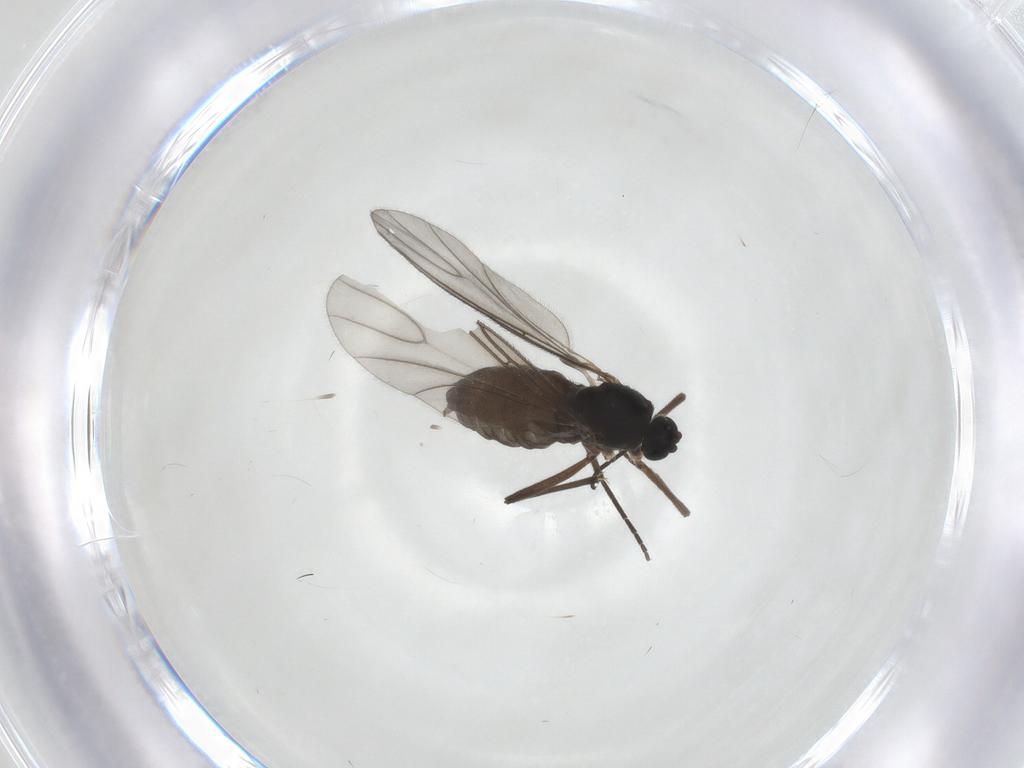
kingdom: Animalia
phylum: Arthropoda
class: Insecta
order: Diptera
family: Sciaridae
